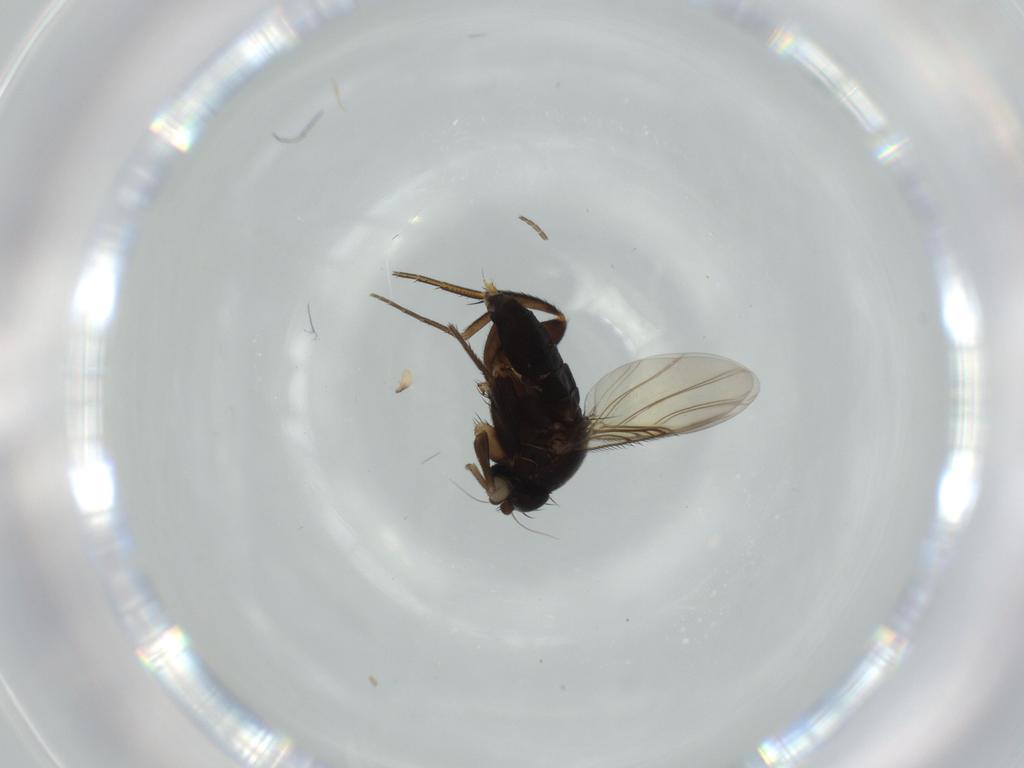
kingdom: Animalia
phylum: Arthropoda
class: Insecta
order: Diptera
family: Phoridae
